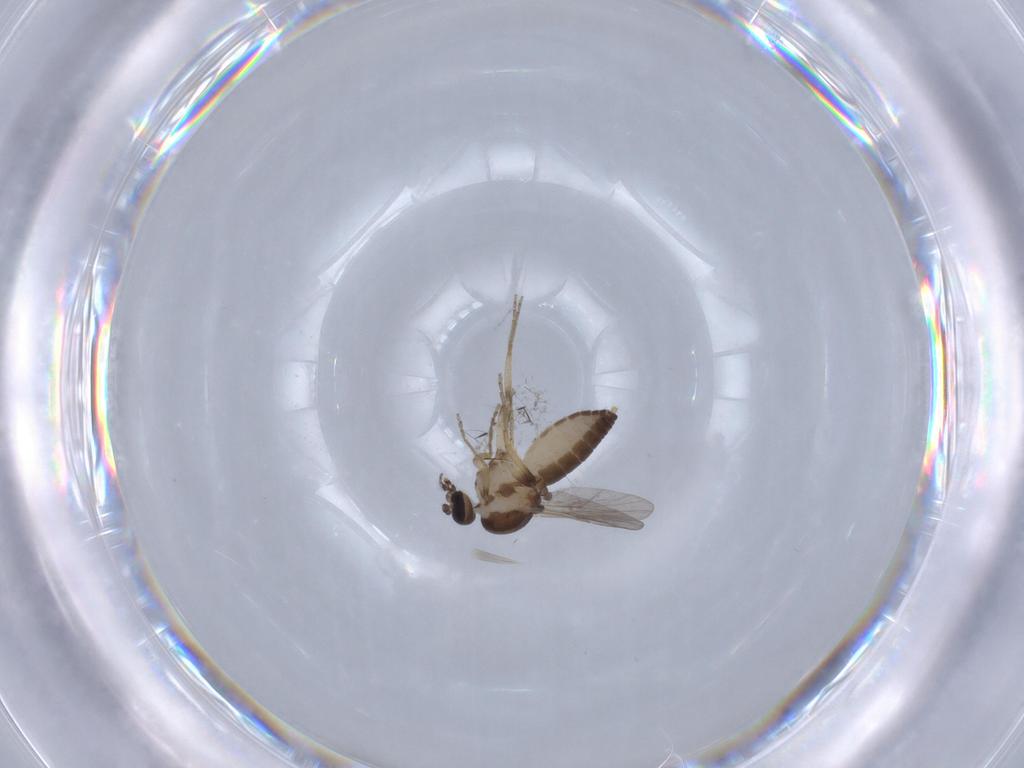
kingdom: Animalia
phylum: Arthropoda
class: Insecta
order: Diptera
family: Ceratopogonidae
